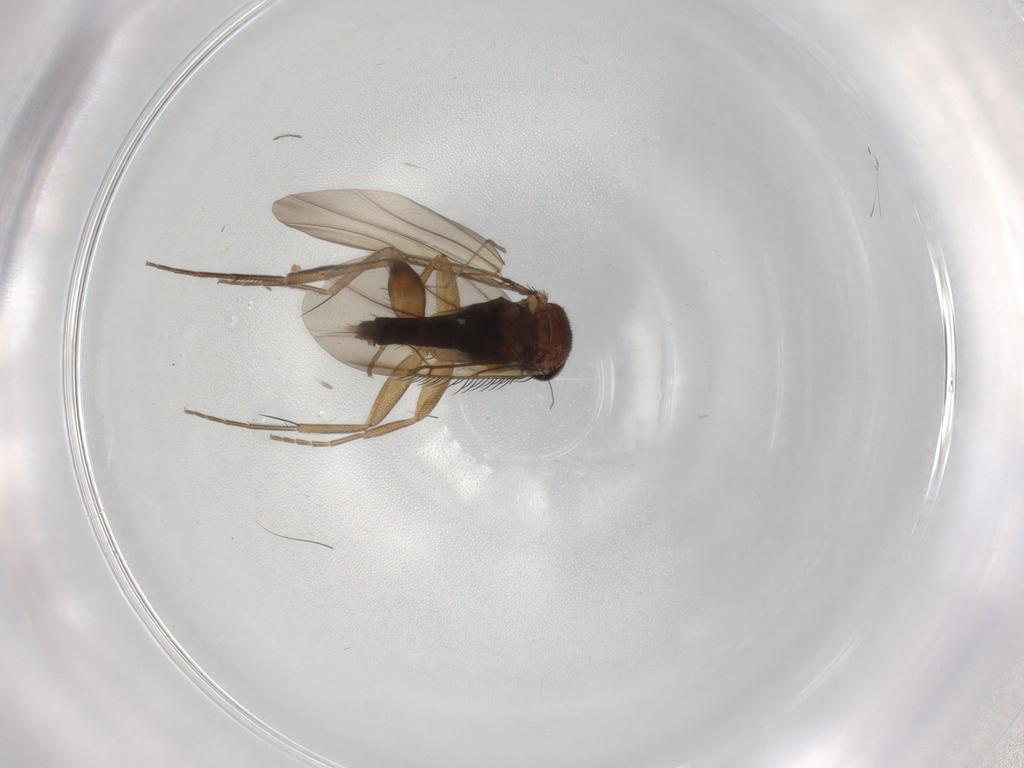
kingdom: Animalia
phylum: Arthropoda
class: Insecta
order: Diptera
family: Phoridae
